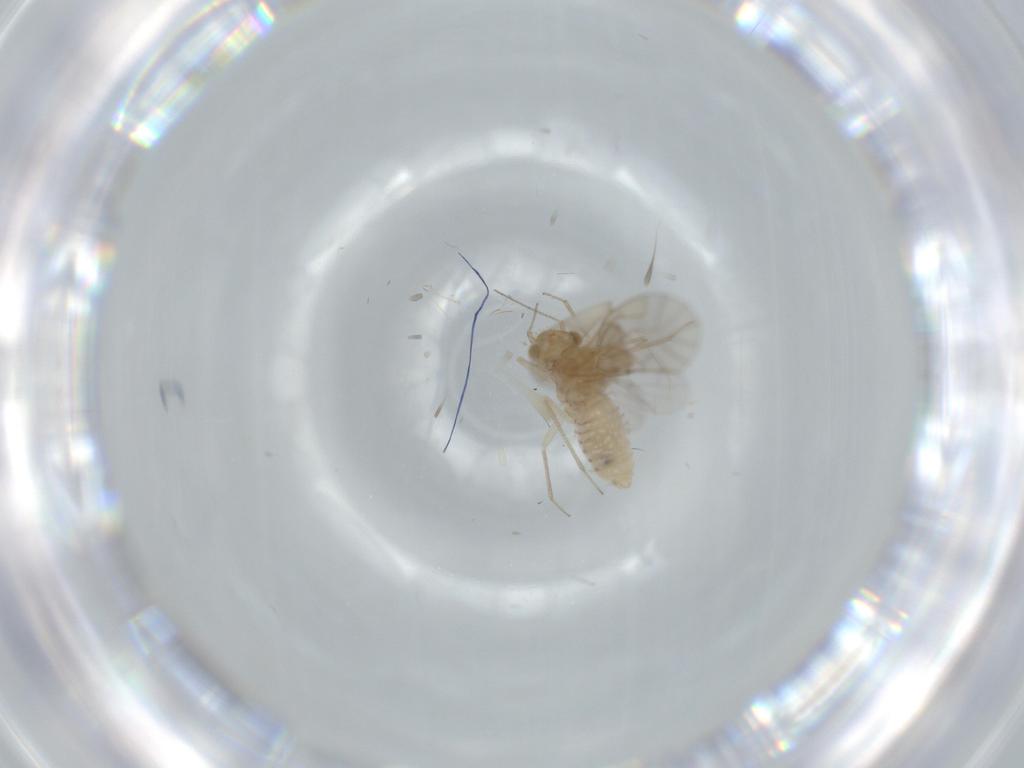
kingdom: Animalia
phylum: Arthropoda
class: Insecta
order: Psocodea
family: Lachesillidae
